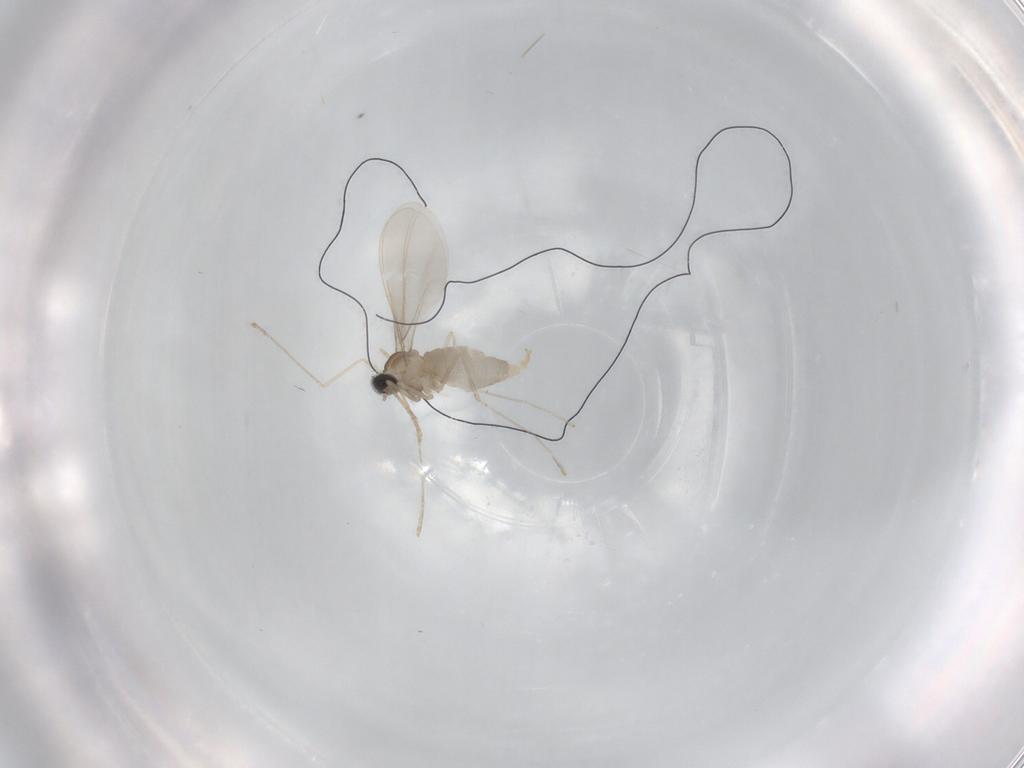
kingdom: Animalia
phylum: Arthropoda
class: Insecta
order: Diptera
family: Cecidomyiidae
